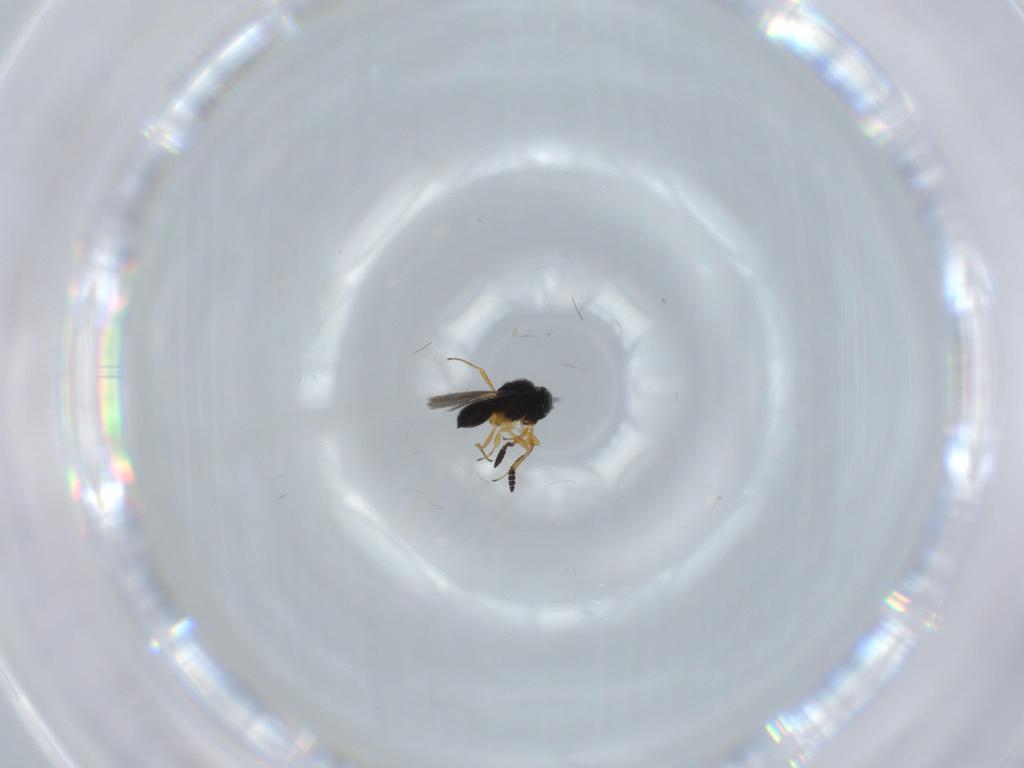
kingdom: Animalia
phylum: Arthropoda
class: Insecta
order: Hymenoptera
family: Scelionidae
